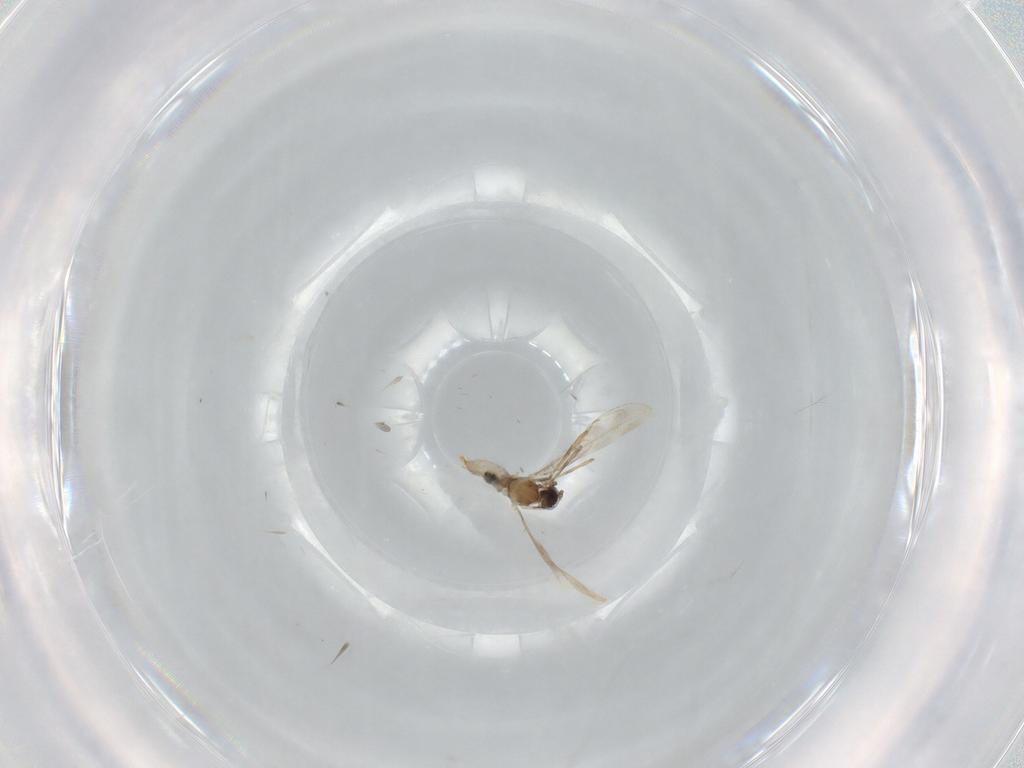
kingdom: Animalia
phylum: Arthropoda
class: Insecta
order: Diptera
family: Cecidomyiidae
